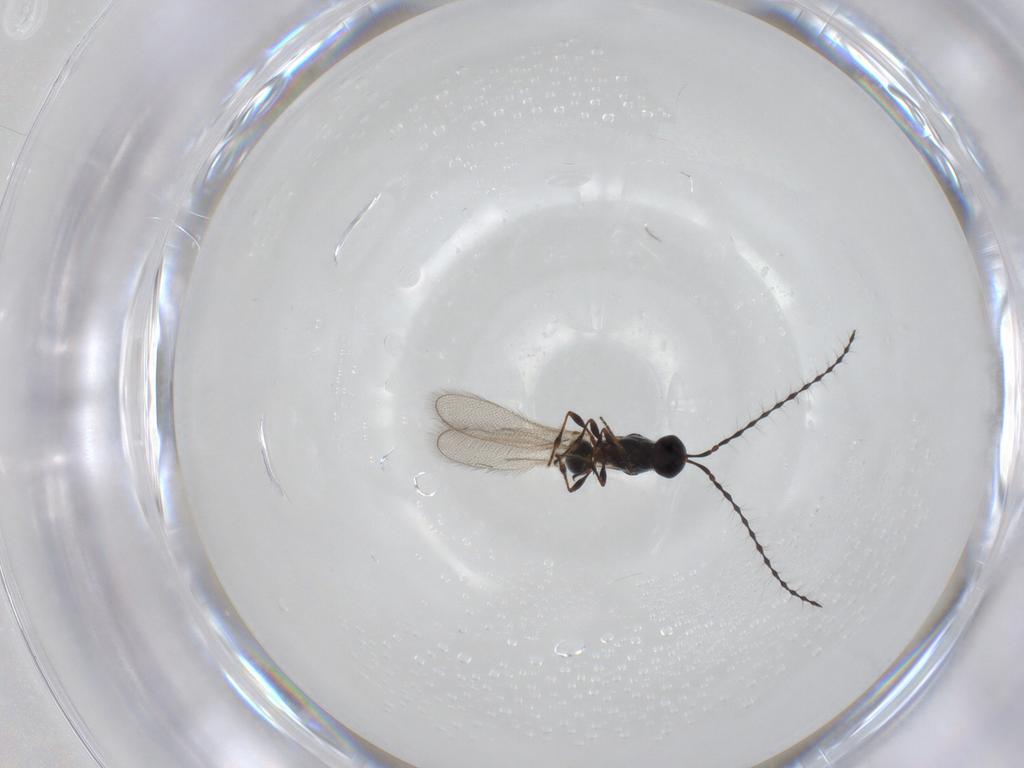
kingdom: Animalia
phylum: Arthropoda
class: Insecta
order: Hymenoptera
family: Diapriidae
